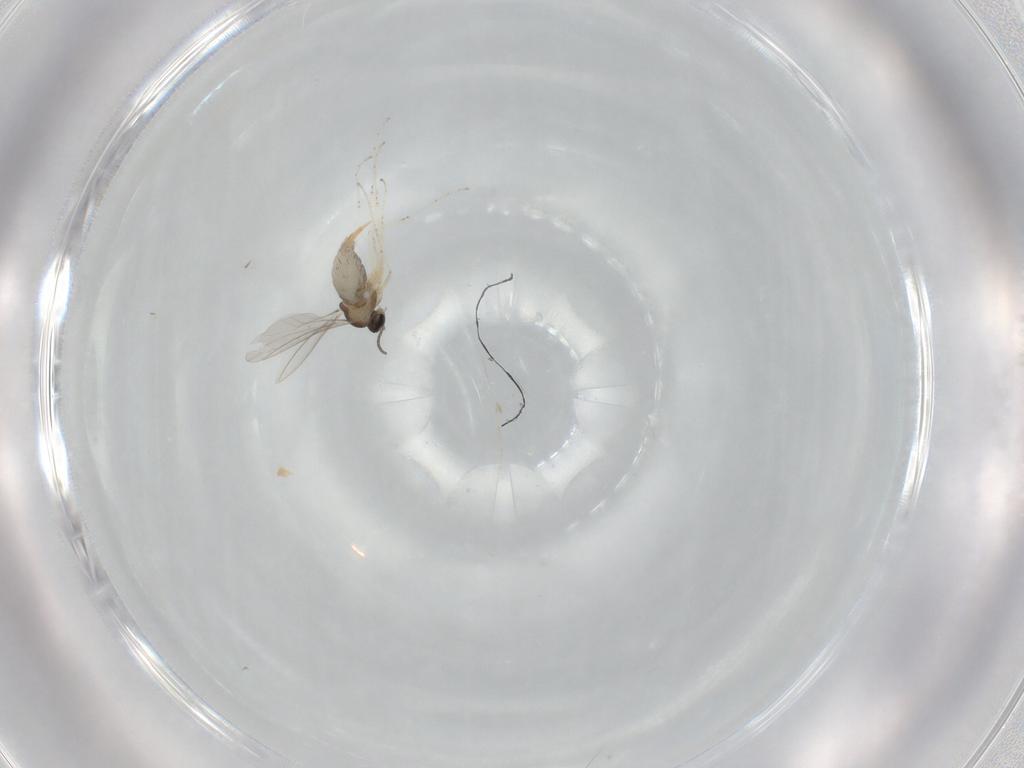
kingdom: Animalia
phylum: Arthropoda
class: Insecta
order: Diptera
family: Cecidomyiidae
